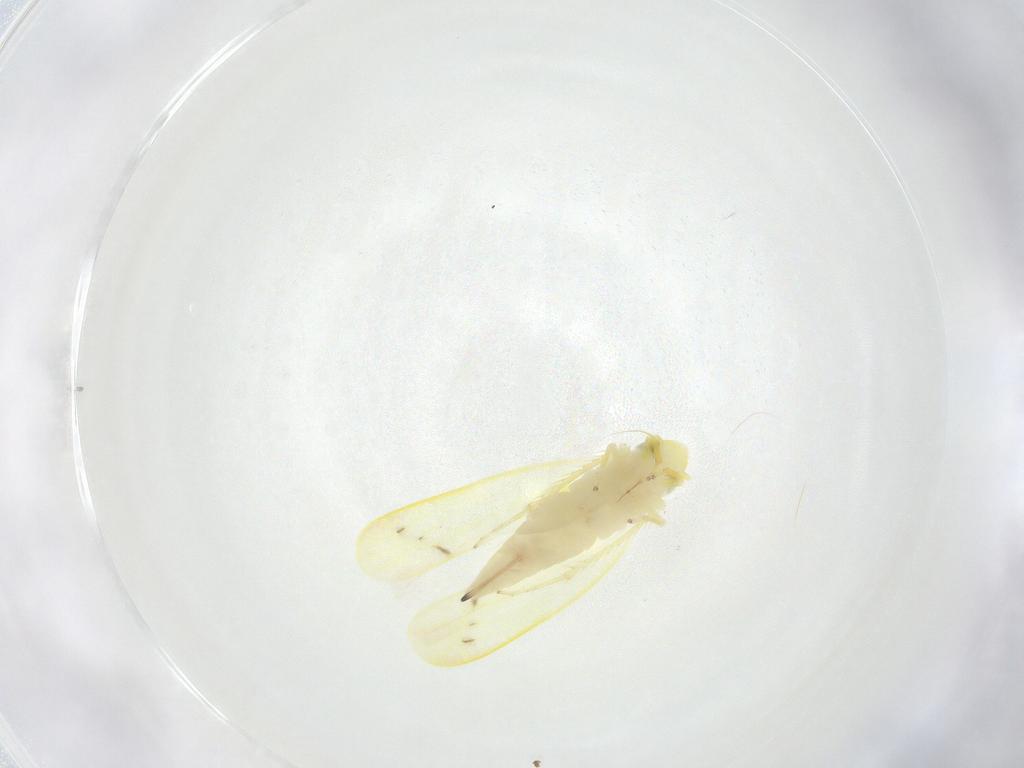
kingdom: Animalia
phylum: Arthropoda
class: Insecta
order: Hemiptera
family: Cicadellidae
